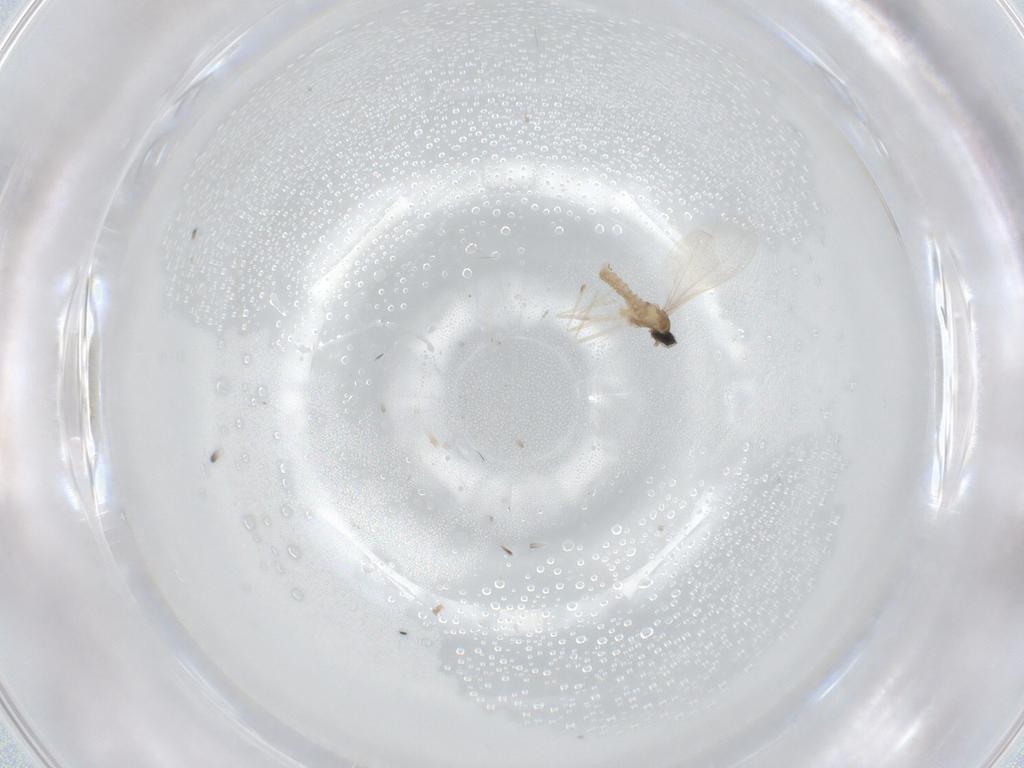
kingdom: Animalia
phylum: Arthropoda
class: Insecta
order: Diptera
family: Cecidomyiidae
